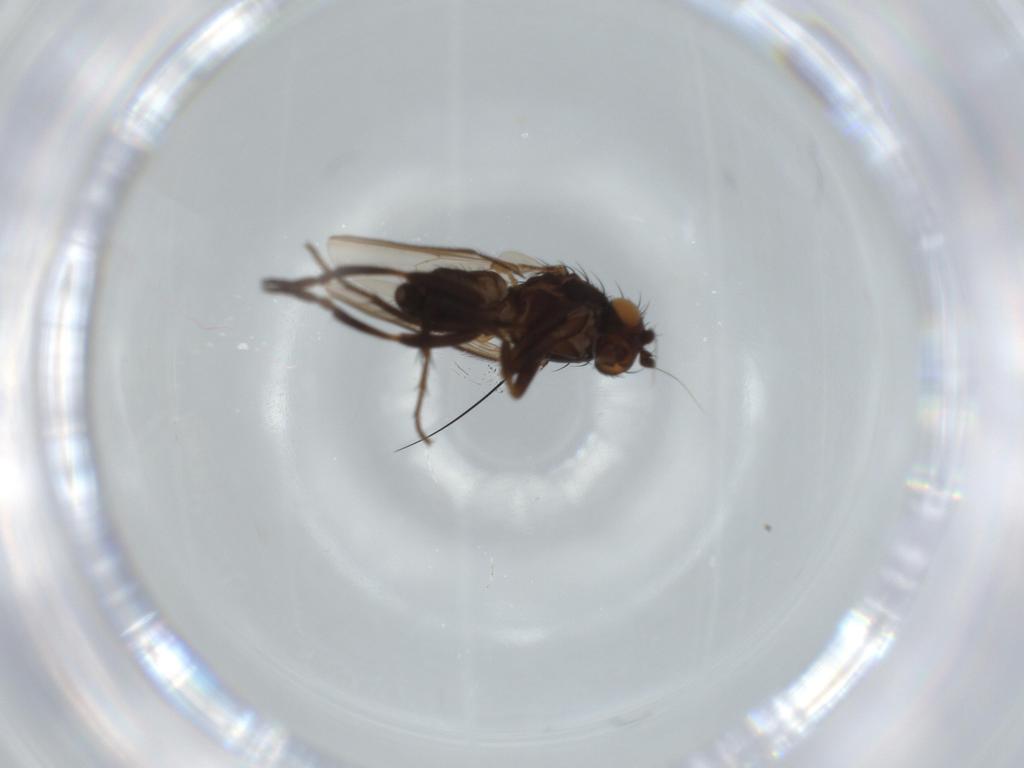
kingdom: Animalia
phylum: Arthropoda
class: Insecta
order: Diptera
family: Sphaeroceridae
